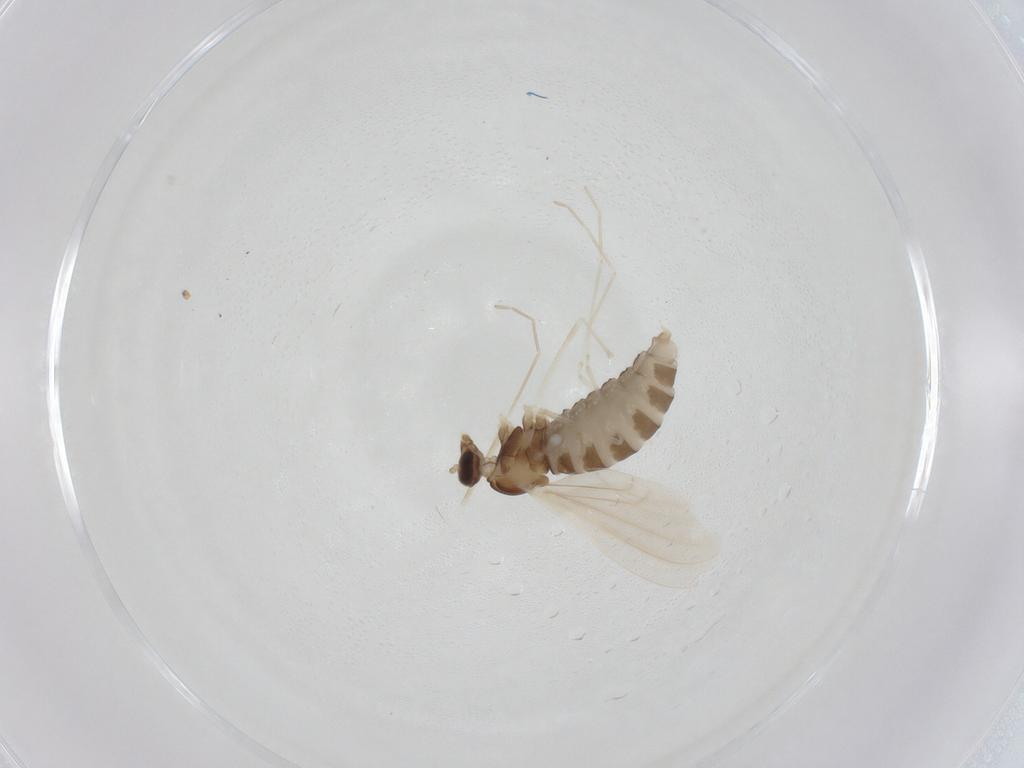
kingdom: Animalia
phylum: Arthropoda
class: Insecta
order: Diptera
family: Cecidomyiidae
